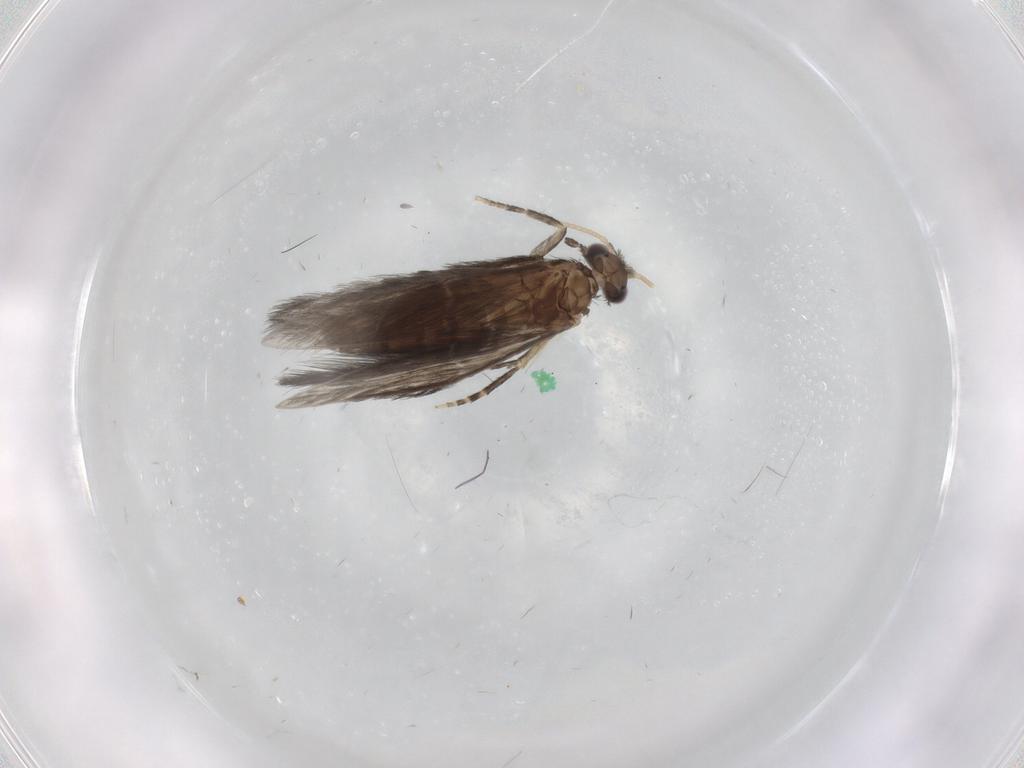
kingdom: Animalia
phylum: Arthropoda
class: Insecta
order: Trichoptera
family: Hydroptilidae
